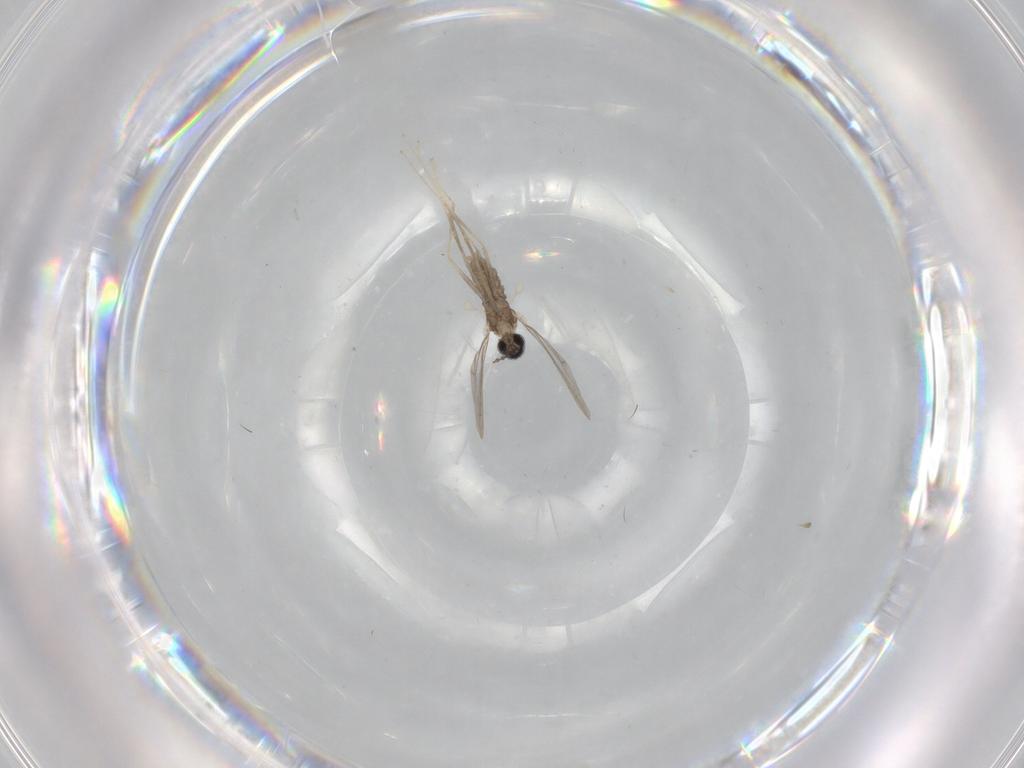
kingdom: Animalia
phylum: Arthropoda
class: Insecta
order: Diptera
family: Cecidomyiidae
